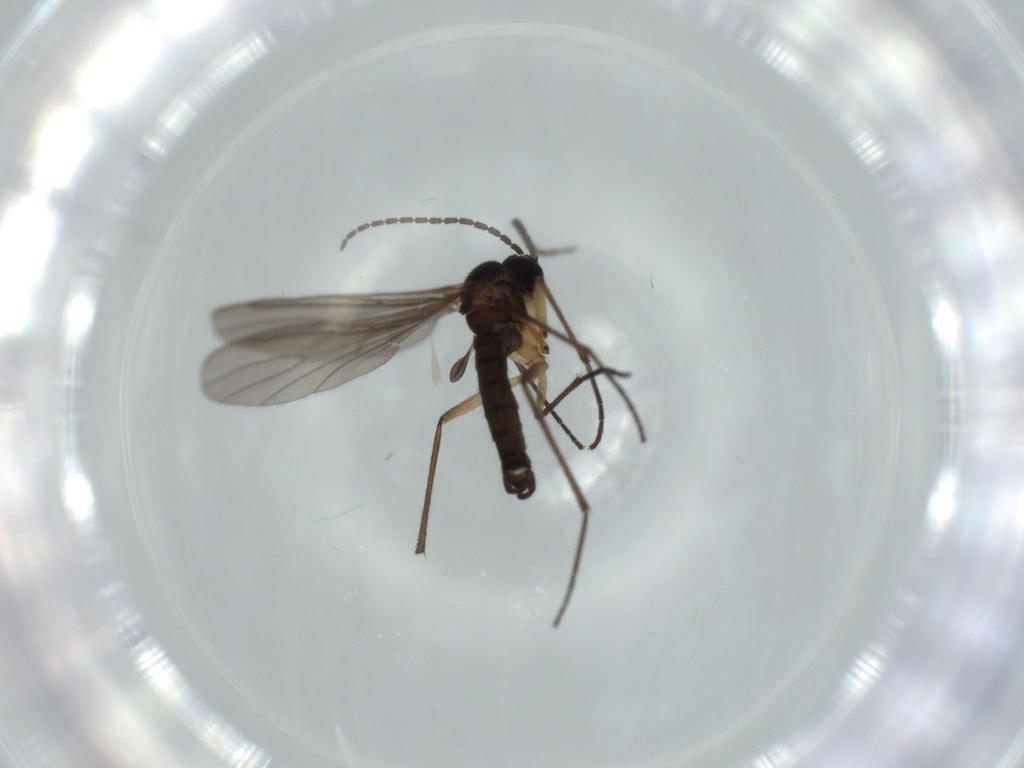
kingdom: Animalia
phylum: Arthropoda
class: Insecta
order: Diptera
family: Sciaridae
